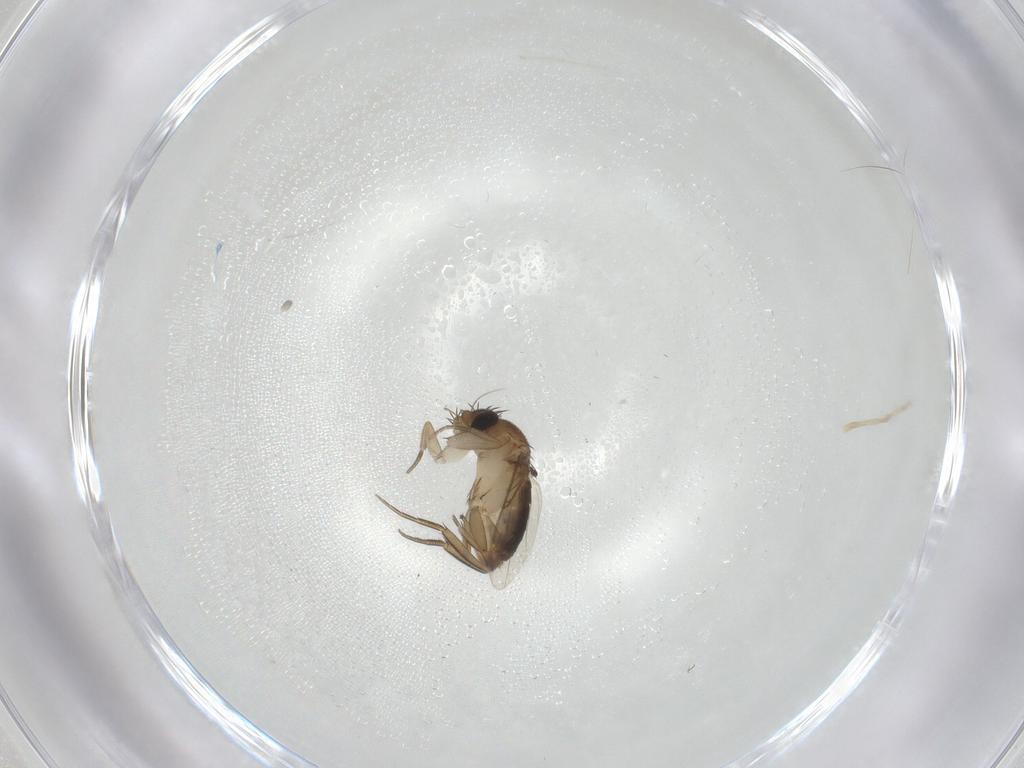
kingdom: Animalia
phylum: Arthropoda
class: Insecta
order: Diptera
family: Phoridae
